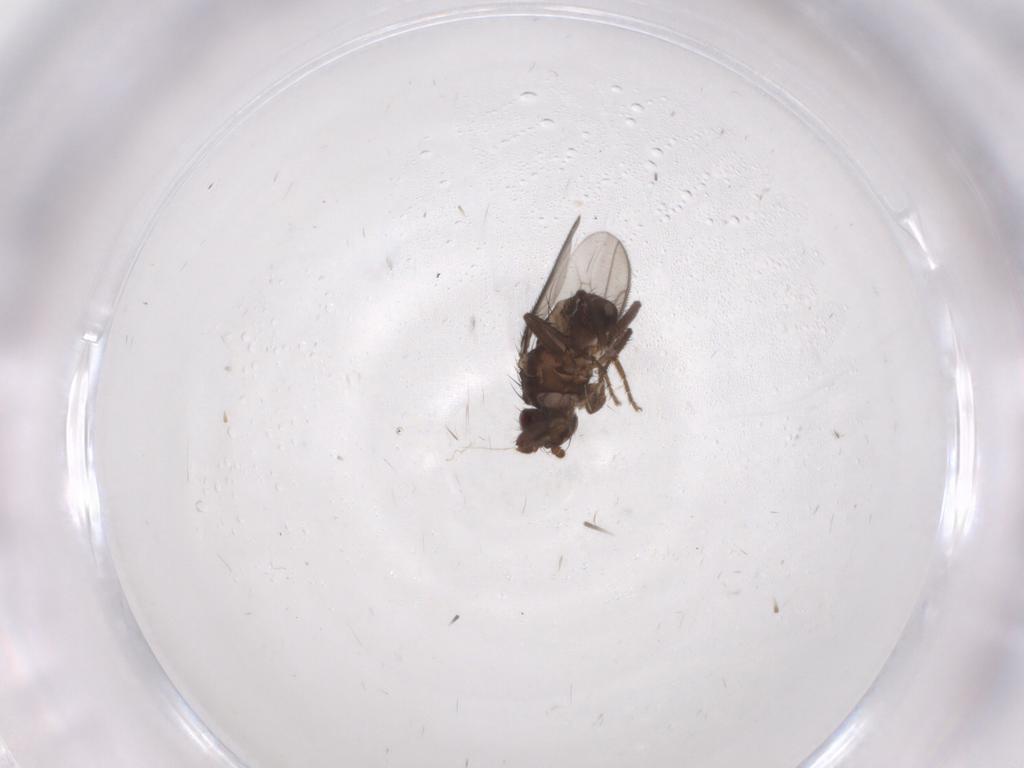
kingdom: Animalia
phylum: Arthropoda
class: Insecta
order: Diptera
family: Sphaeroceridae
